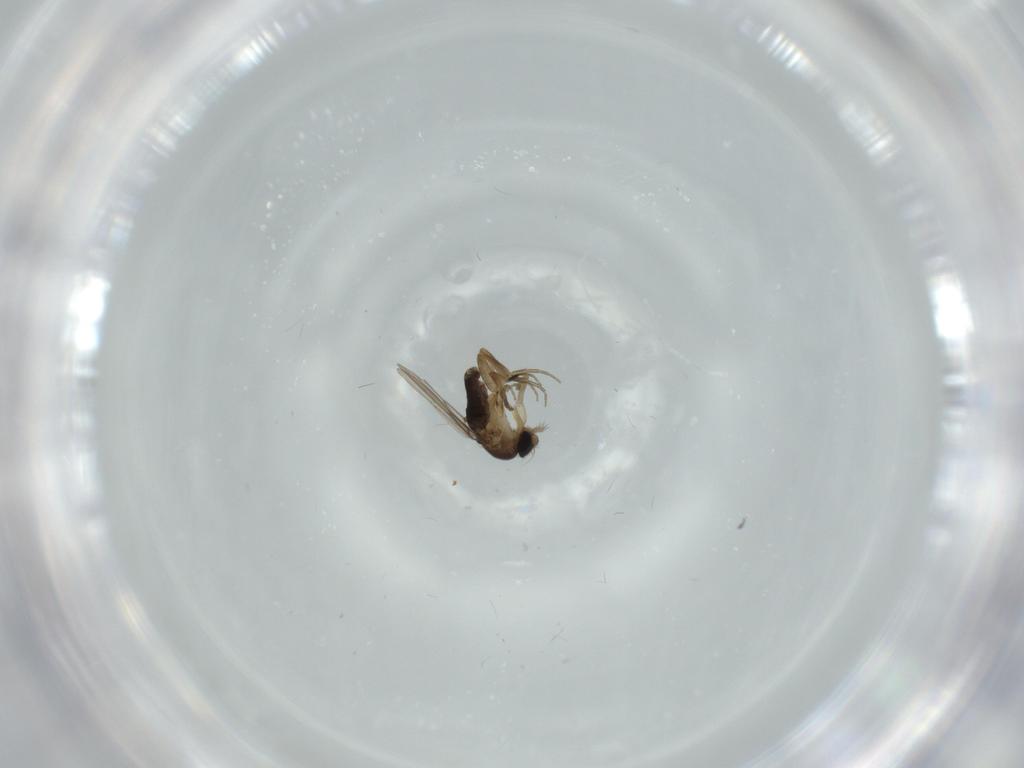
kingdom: Animalia
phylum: Arthropoda
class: Insecta
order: Diptera
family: Phoridae
